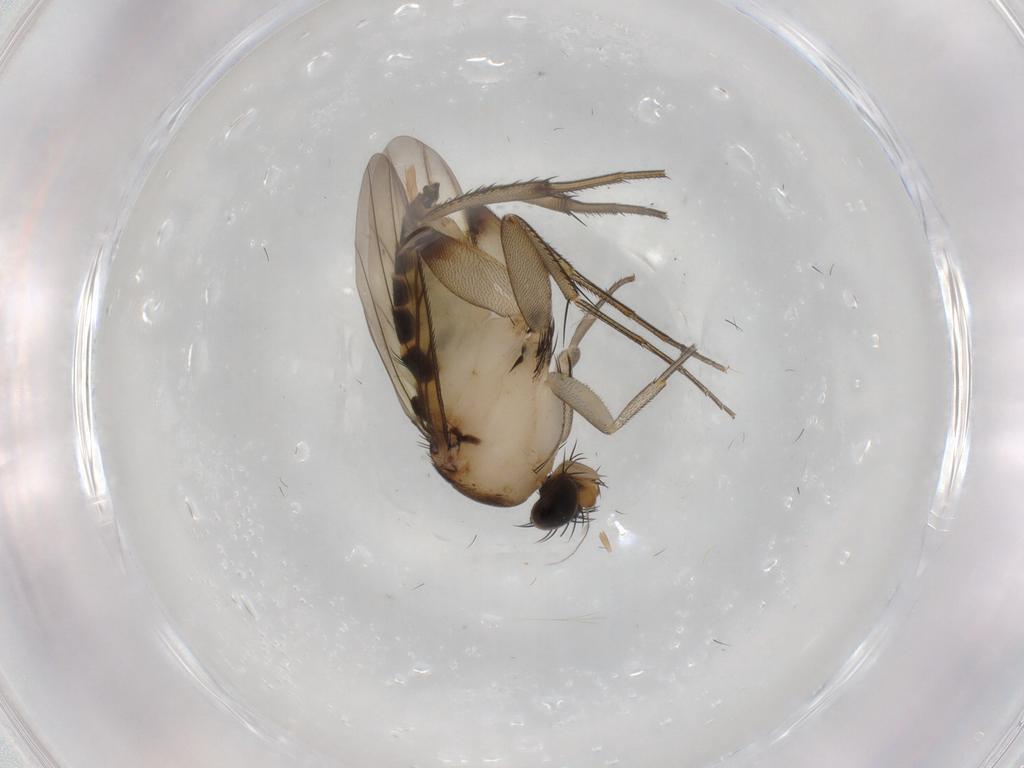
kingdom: Animalia
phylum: Arthropoda
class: Insecta
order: Diptera
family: Phoridae
